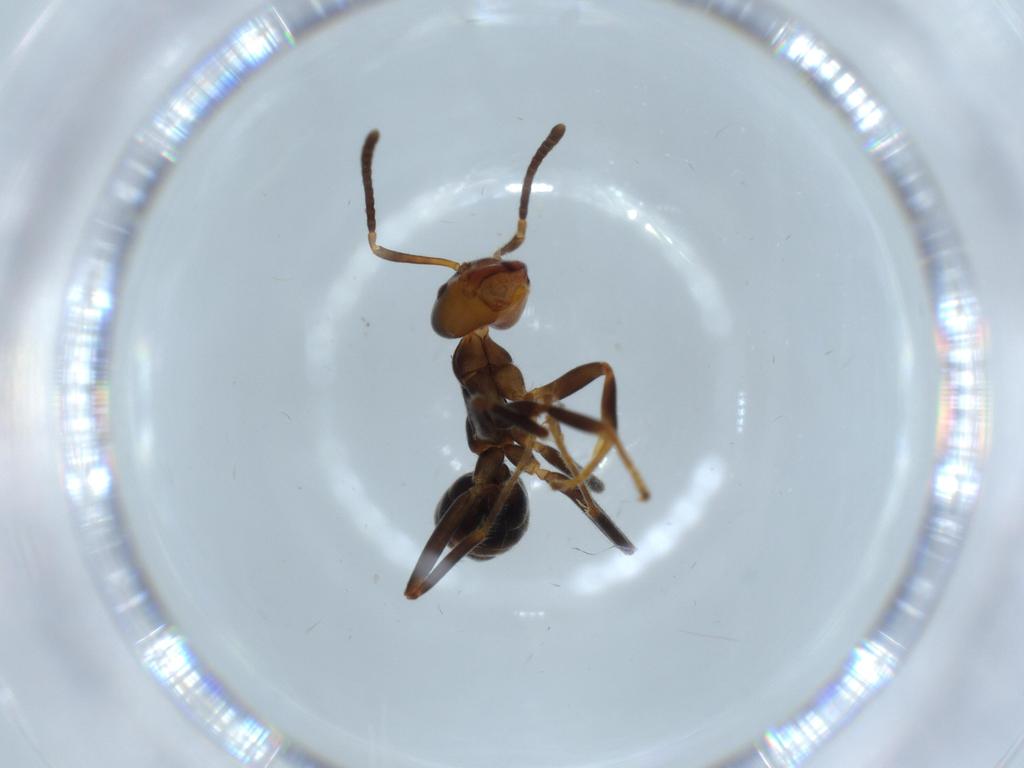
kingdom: Animalia
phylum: Arthropoda
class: Insecta
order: Hymenoptera
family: Formicidae
